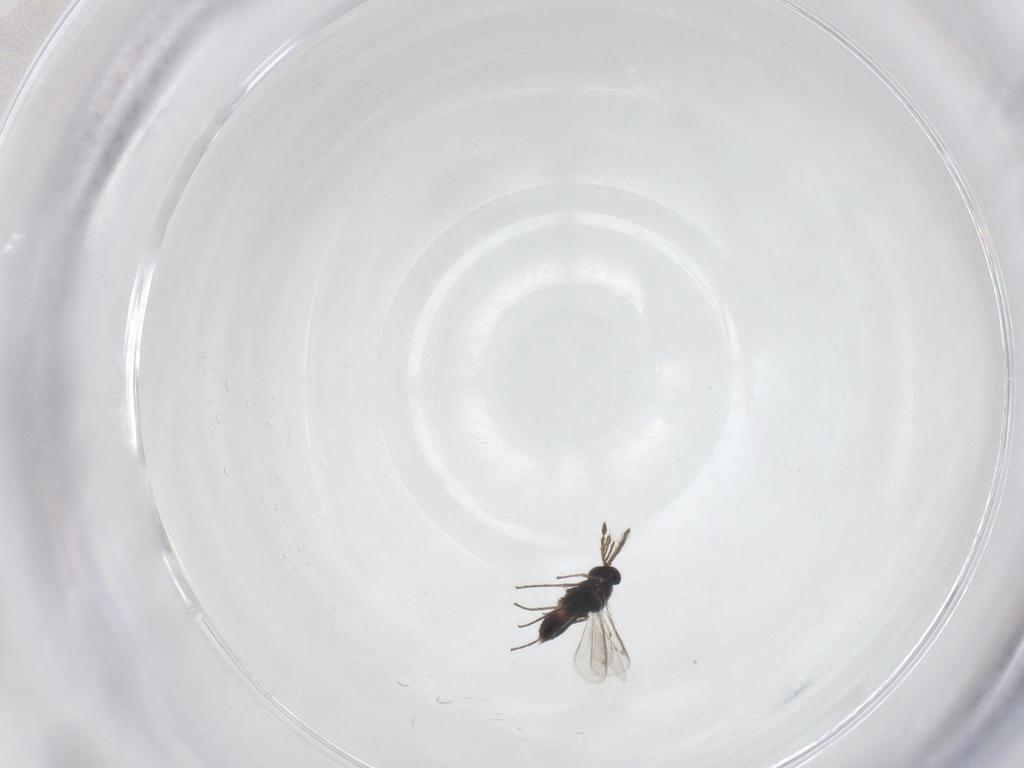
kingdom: Animalia
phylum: Arthropoda
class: Insecta
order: Hymenoptera
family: Eulophidae
